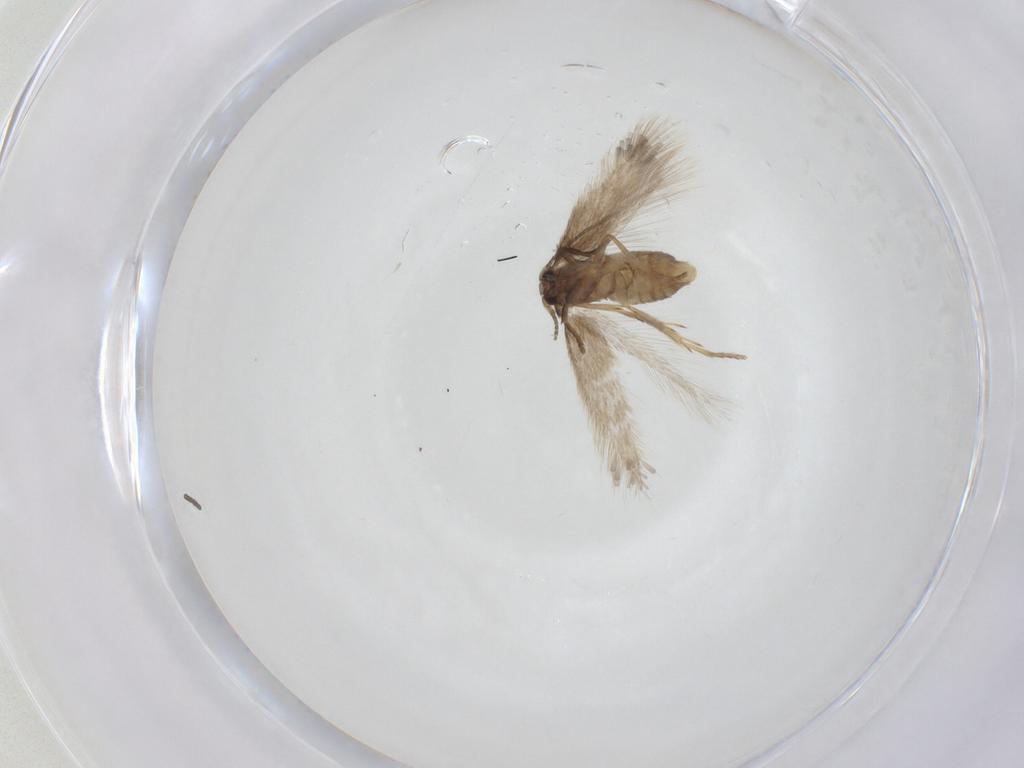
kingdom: Animalia
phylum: Arthropoda
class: Insecta
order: Lepidoptera
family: Nepticulidae
